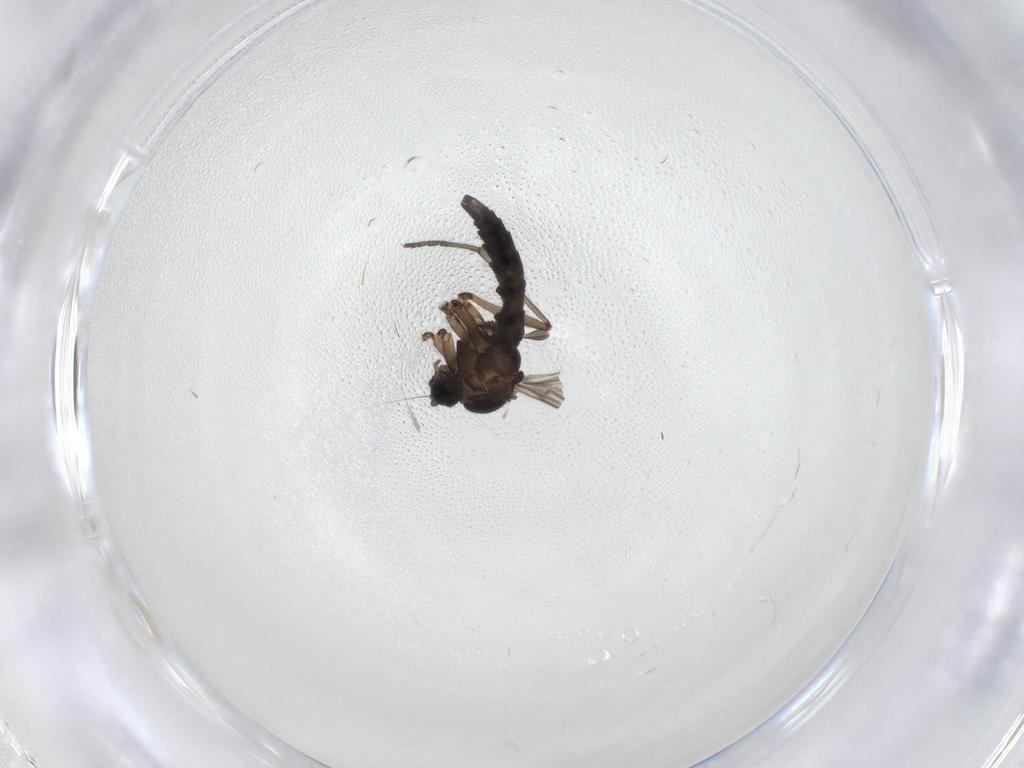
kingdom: Animalia
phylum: Arthropoda
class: Insecta
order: Diptera
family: Sciaridae
